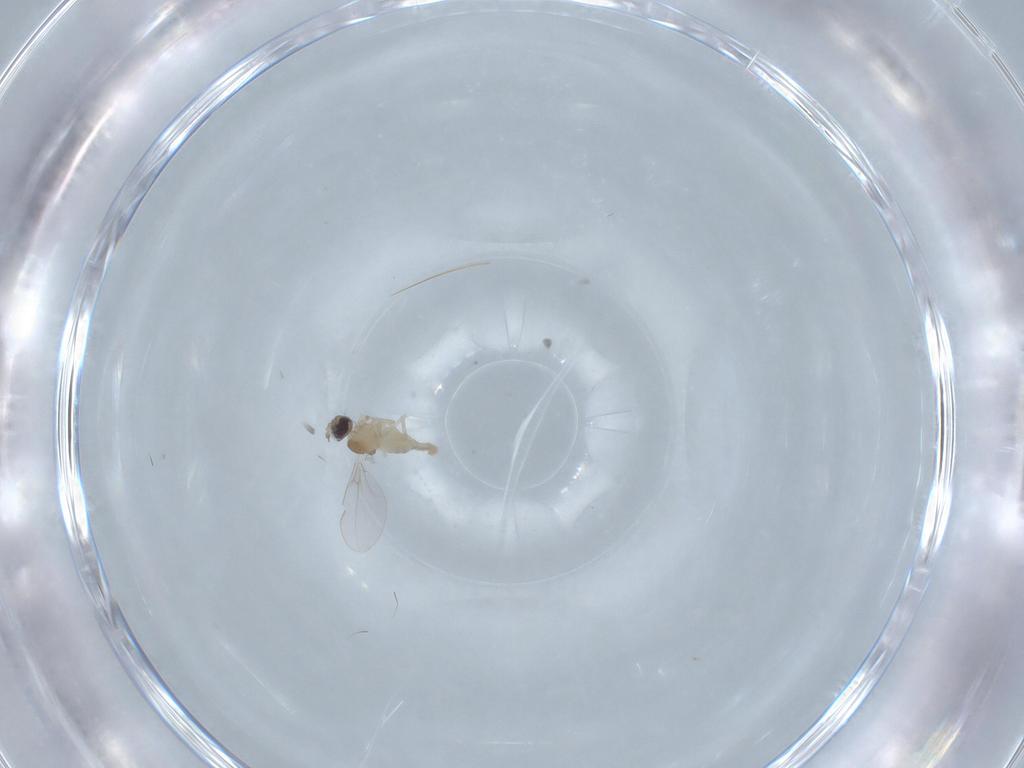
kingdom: Animalia
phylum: Arthropoda
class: Insecta
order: Diptera
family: Cecidomyiidae
